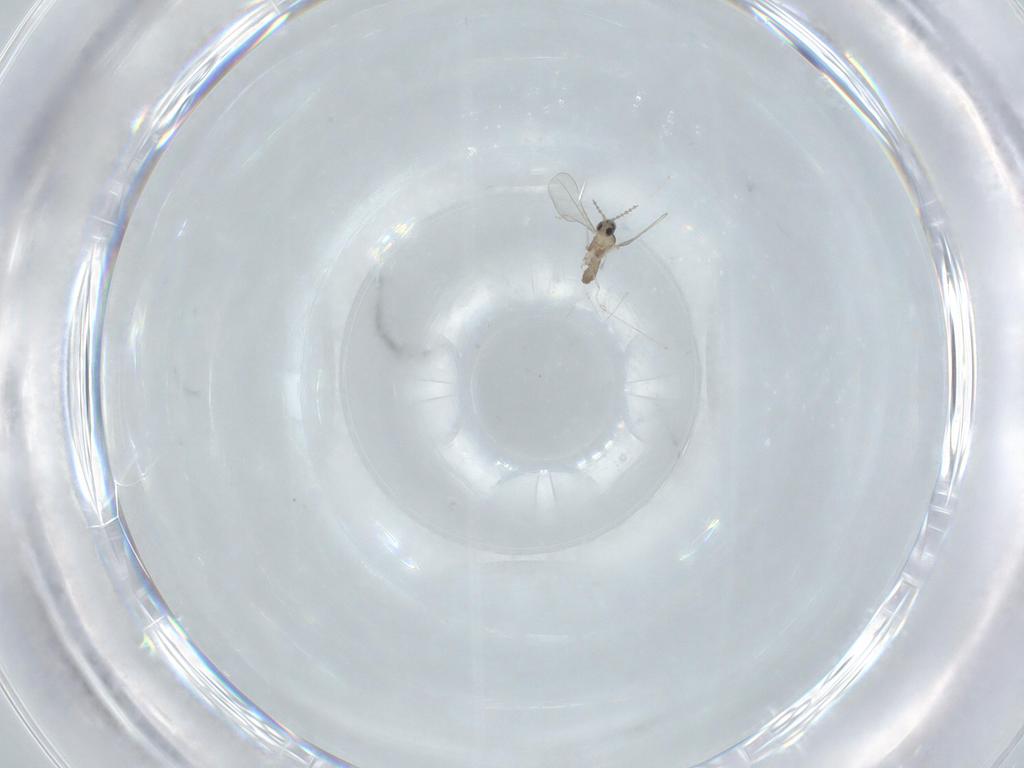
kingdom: Animalia
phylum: Arthropoda
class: Insecta
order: Diptera
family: Cecidomyiidae
